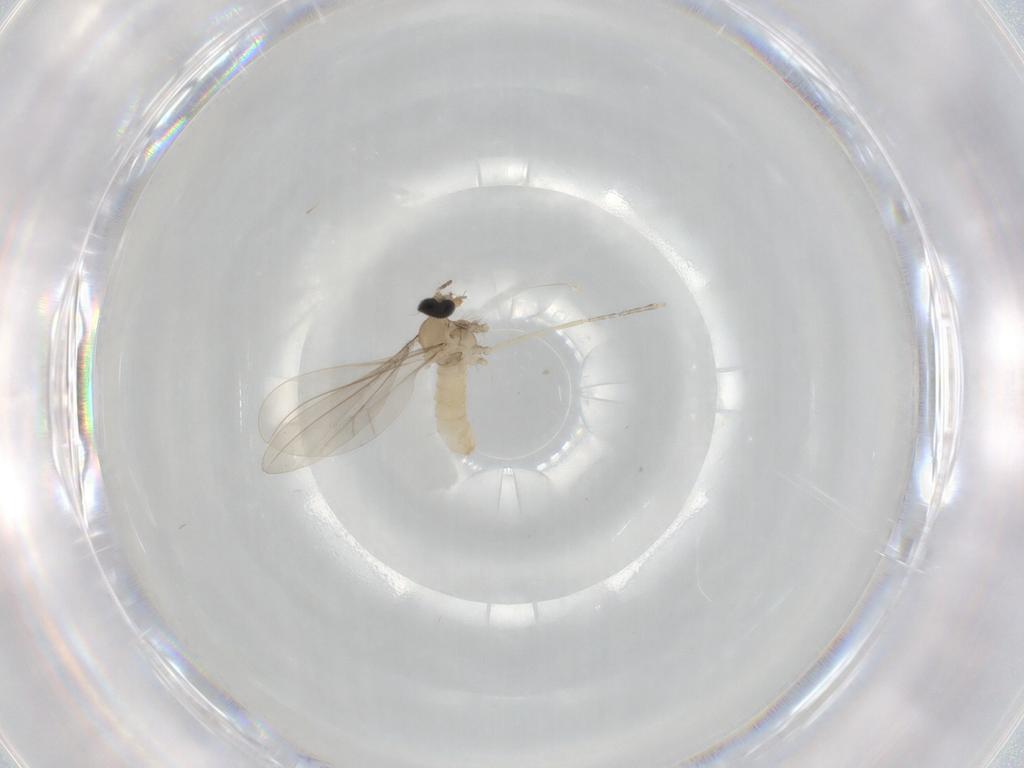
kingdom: Animalia
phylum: Arthropoda
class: Insecta
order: Diptera
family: Cecidomyiidae
